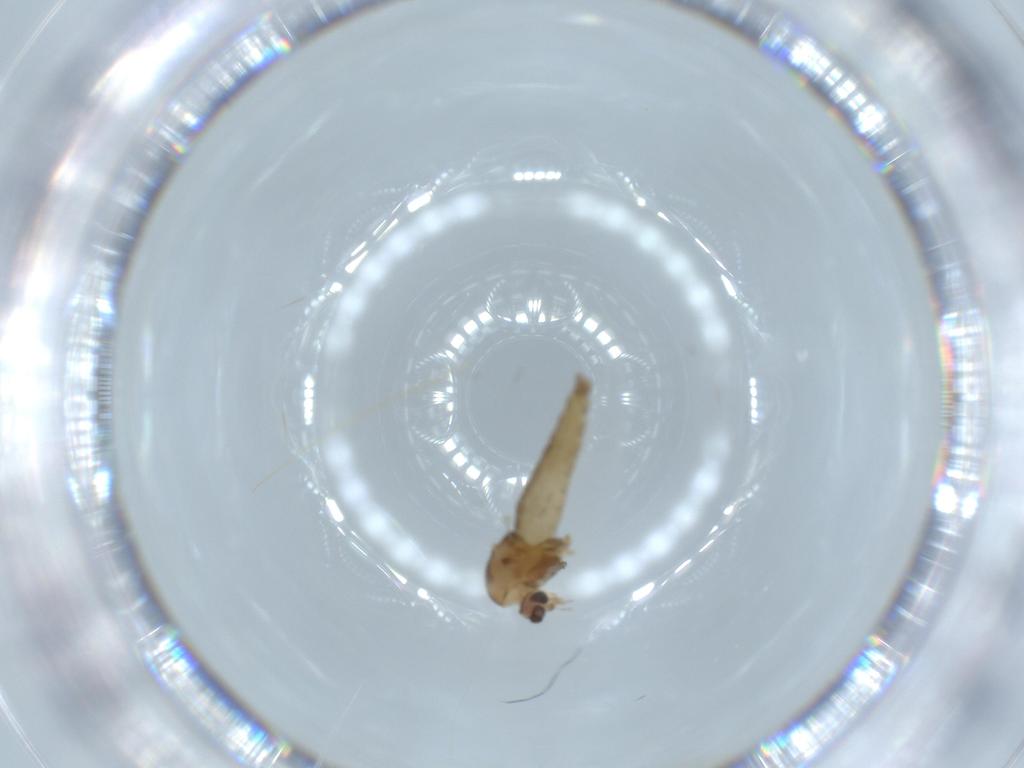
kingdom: Animalia
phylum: Arthropoda
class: Insecta
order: Diptera
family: Chironomidae
